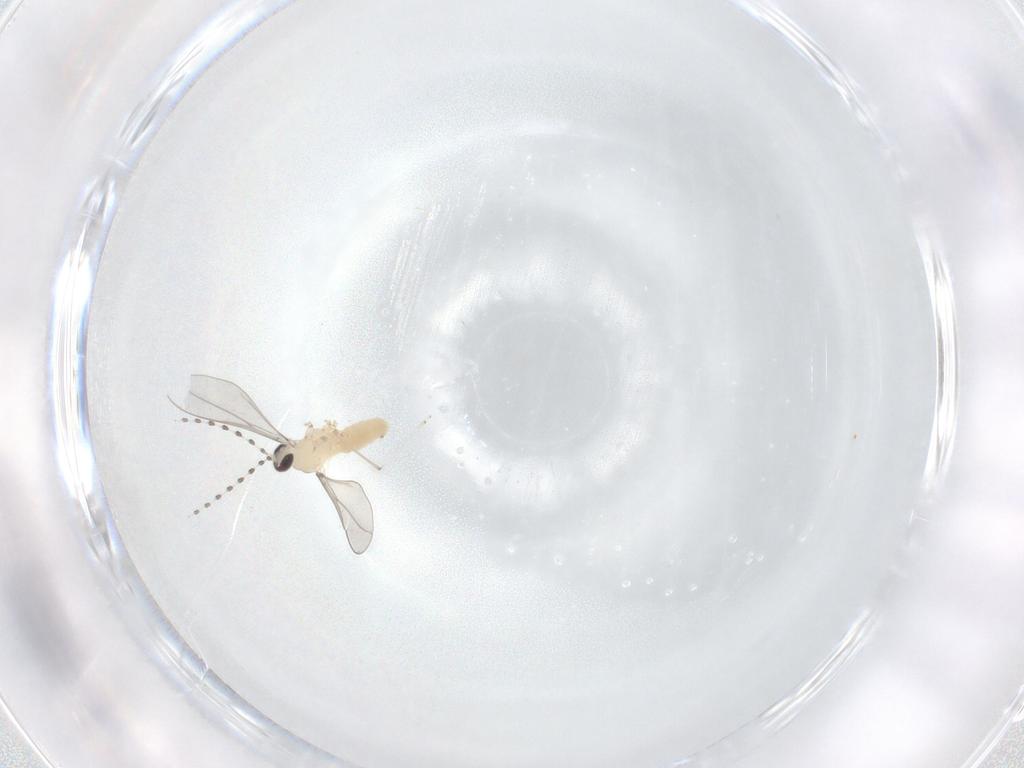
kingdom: Animalia
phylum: Arthropoda
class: Insecta
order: Diptera
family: Cecidomyiidae
